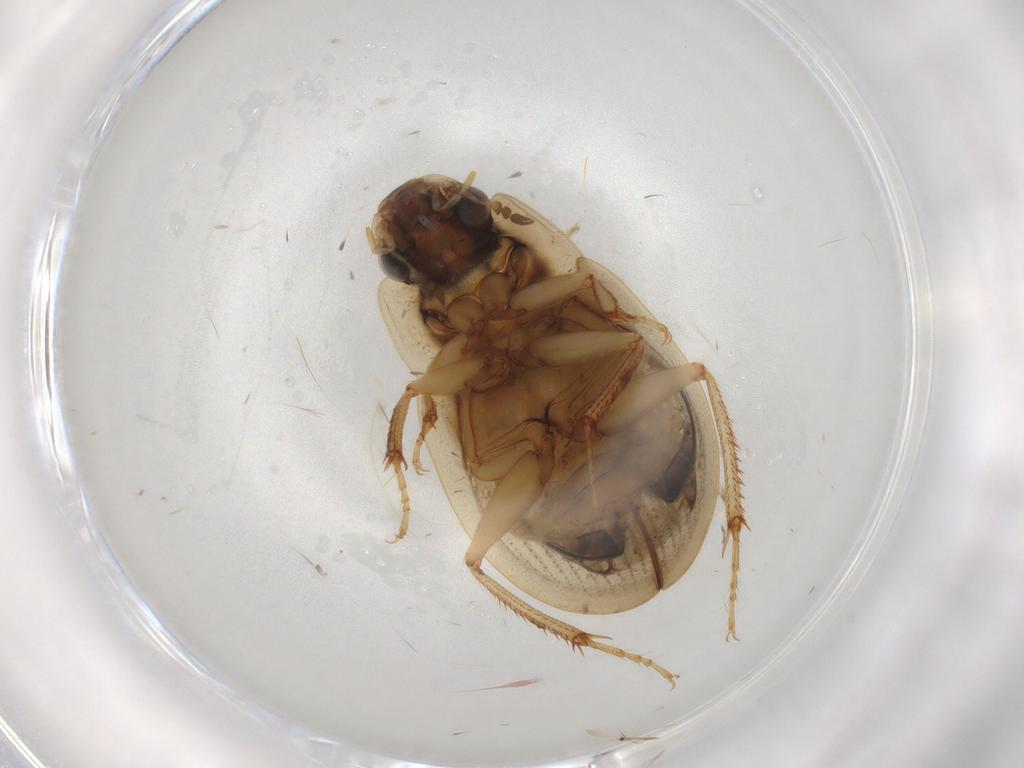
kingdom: Animalia
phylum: Arthropoda
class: Insecta
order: Coleoptera
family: Hydrophilidae
